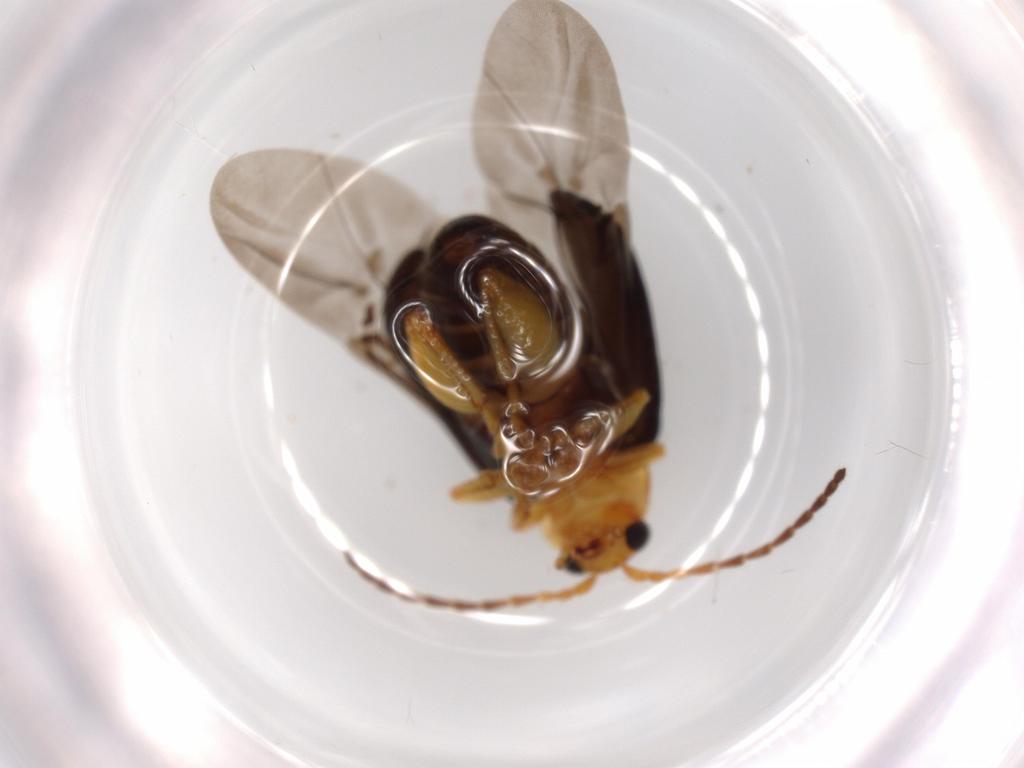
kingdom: Animalia
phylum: Arthropoda
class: Insecta
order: Coleoptera
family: Chrysomelidae
